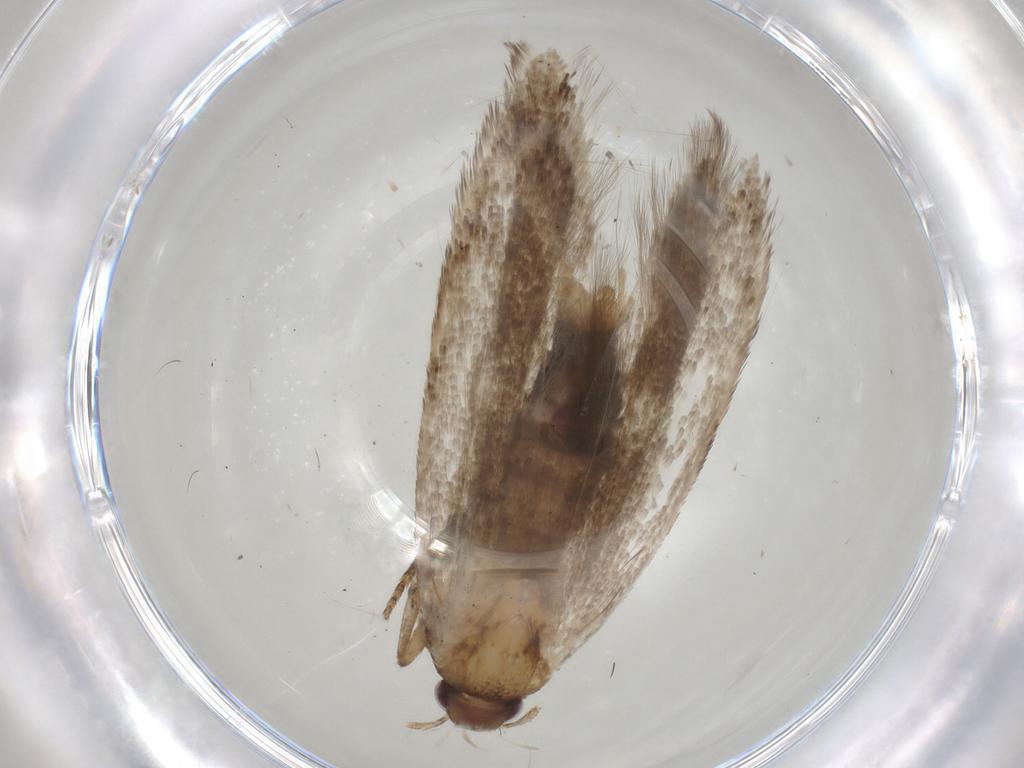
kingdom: Animalia
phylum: Arthropoda
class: Insecta
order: Lepidoptera
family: Gelechiidae
